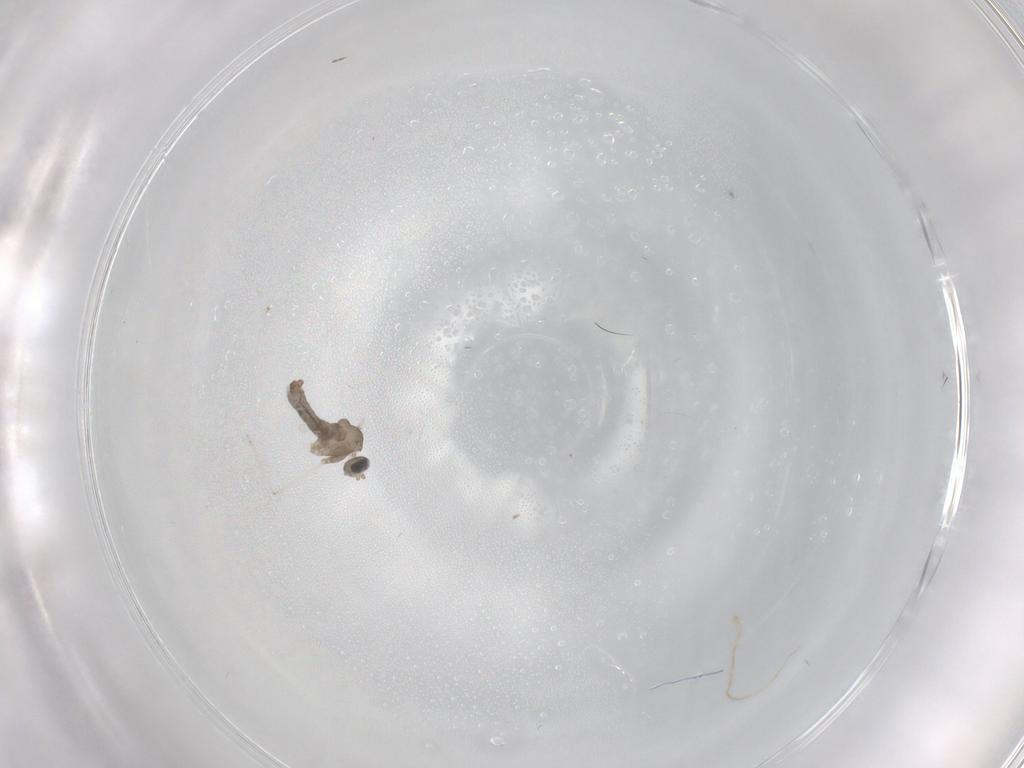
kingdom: Animalia
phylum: Arthropoda
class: Insecta
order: Diptera
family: Cecidomyiidae
